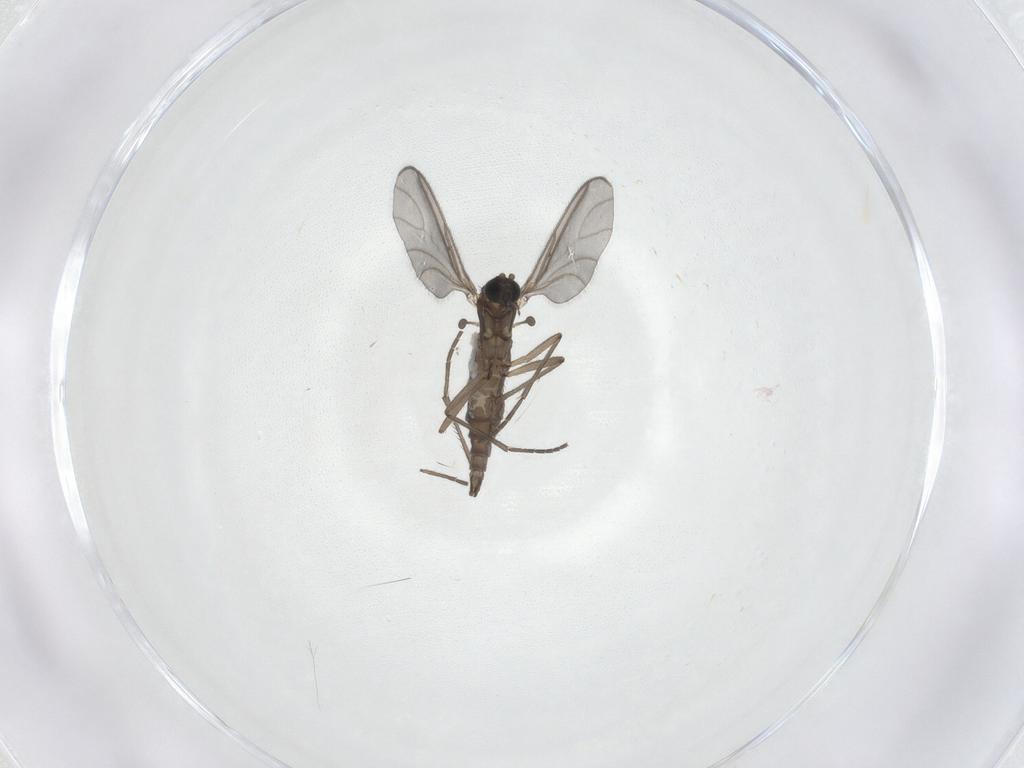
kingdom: Animalia
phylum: Arthropoda
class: Insecta
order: Diptera
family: Sciaridae
